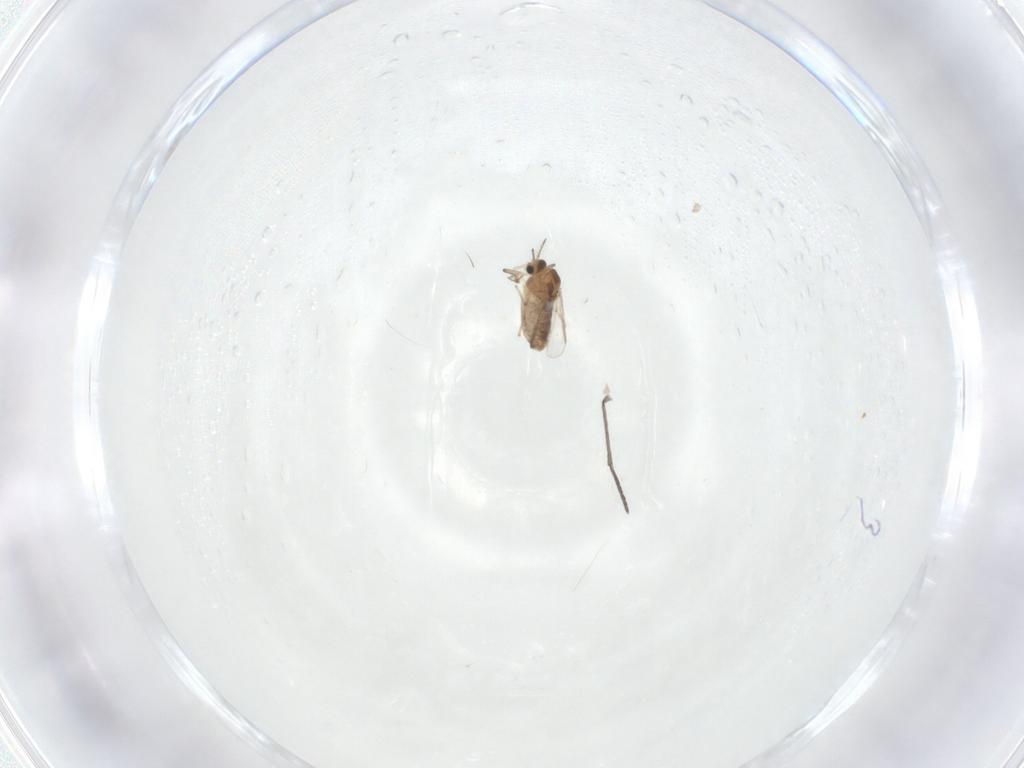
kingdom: Animalia
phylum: Arthropoda
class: Insecta
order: Diptera
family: Chironomidae
